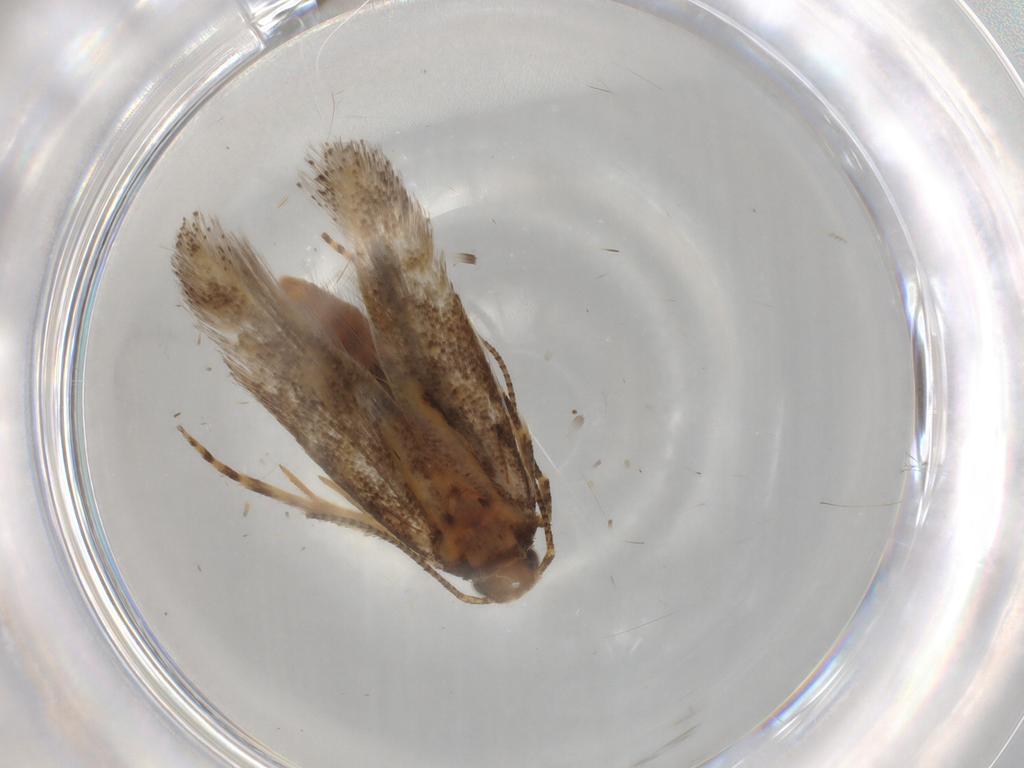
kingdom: Animalia
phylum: Arthropoda
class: Insecta
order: Lepidoptera
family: Gelechiidae
